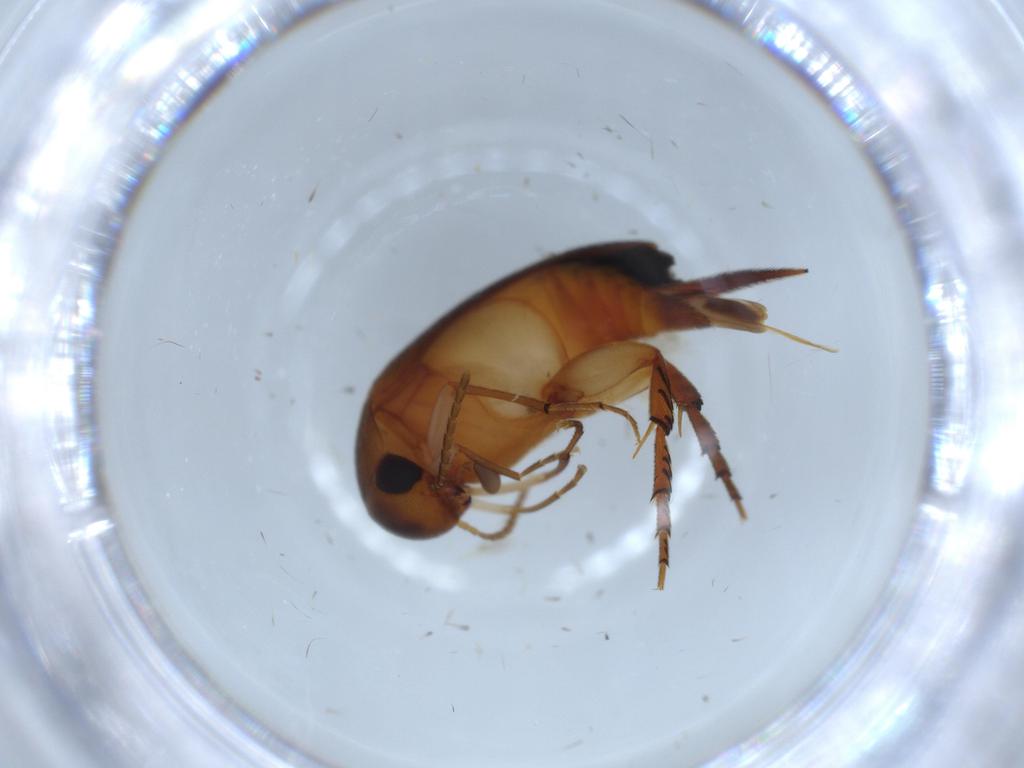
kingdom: Animalia
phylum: Arthropoda
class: Insecta
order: Coleoptera
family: Mordellidae
